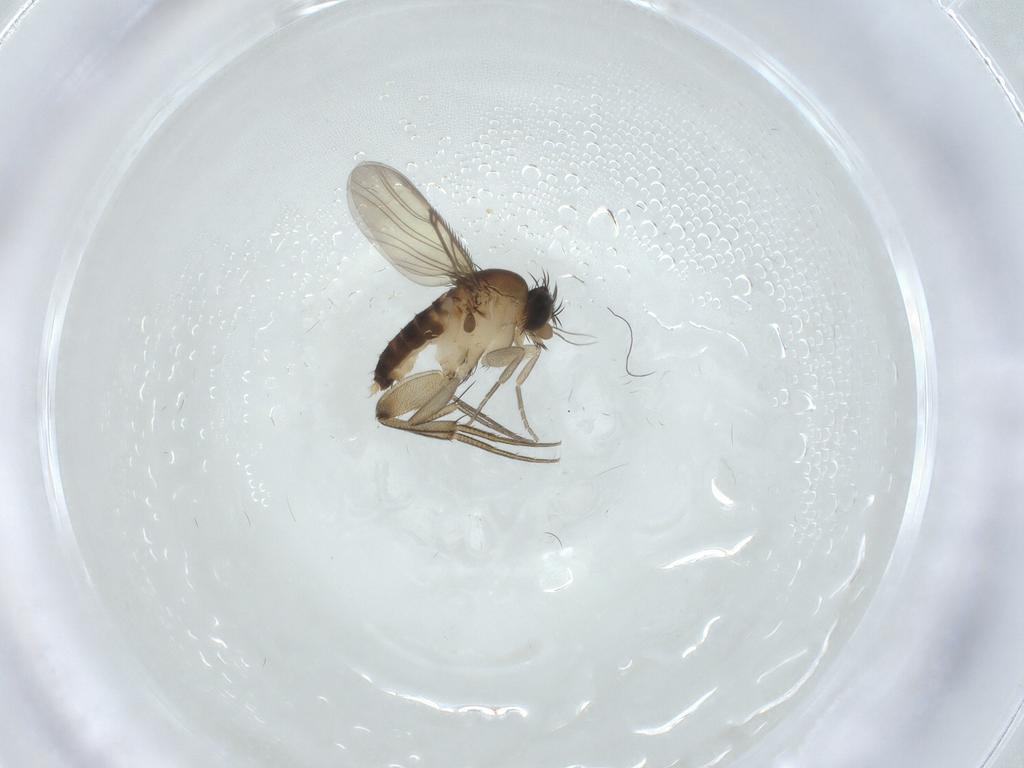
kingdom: Animalia
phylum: Arthropoda
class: Insecta
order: Diptera
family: Phoridae
